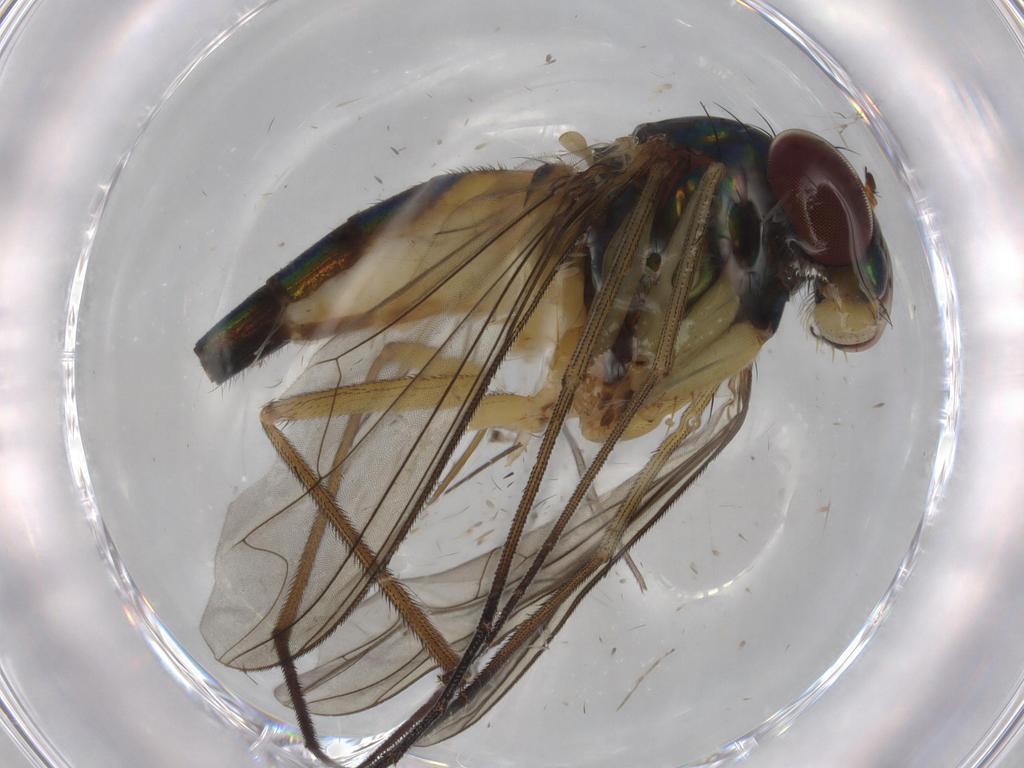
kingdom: Animalia
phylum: Arthropoda
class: Insecta
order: Diptera
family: Dolichopodidae
